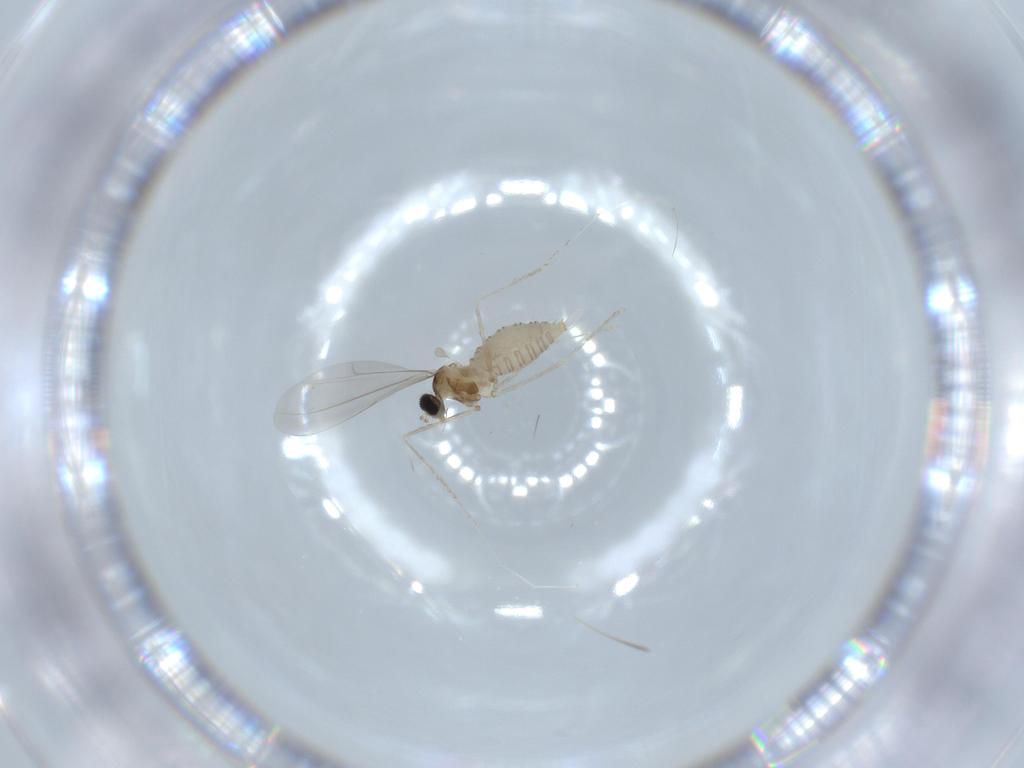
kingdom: Animalia
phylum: Arthropoda
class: Insecta
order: Diptera
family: Cecidomyiidae
